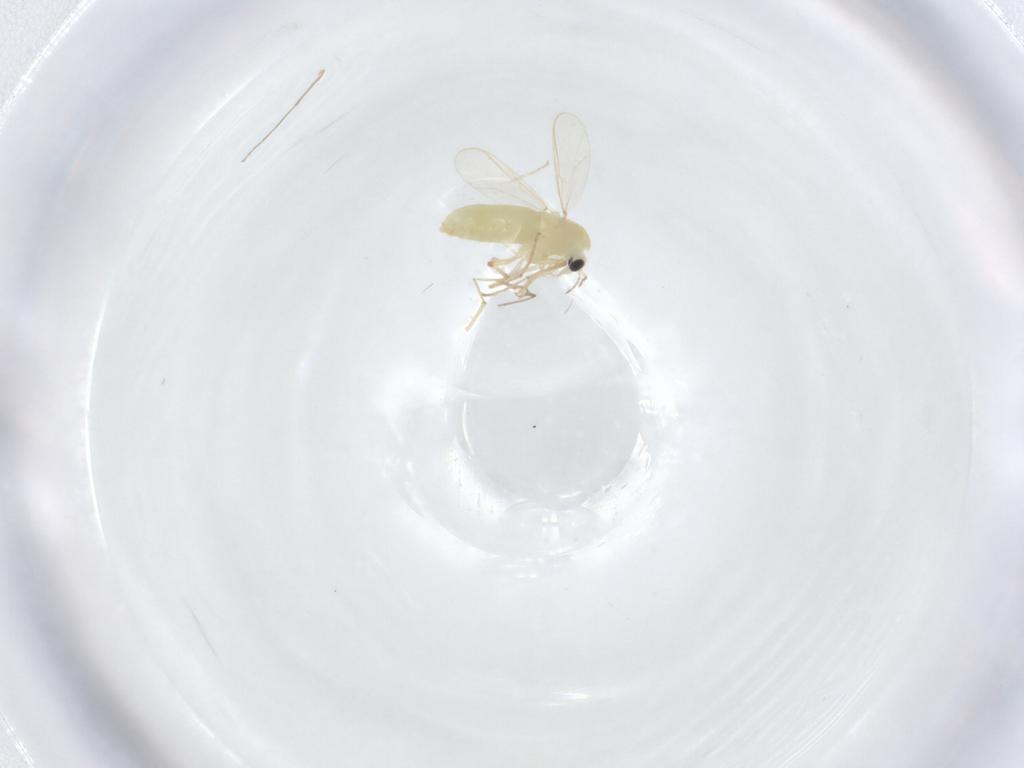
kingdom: Animalia
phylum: Arthropoda
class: Insecta
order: Diptera
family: Chironomidae
